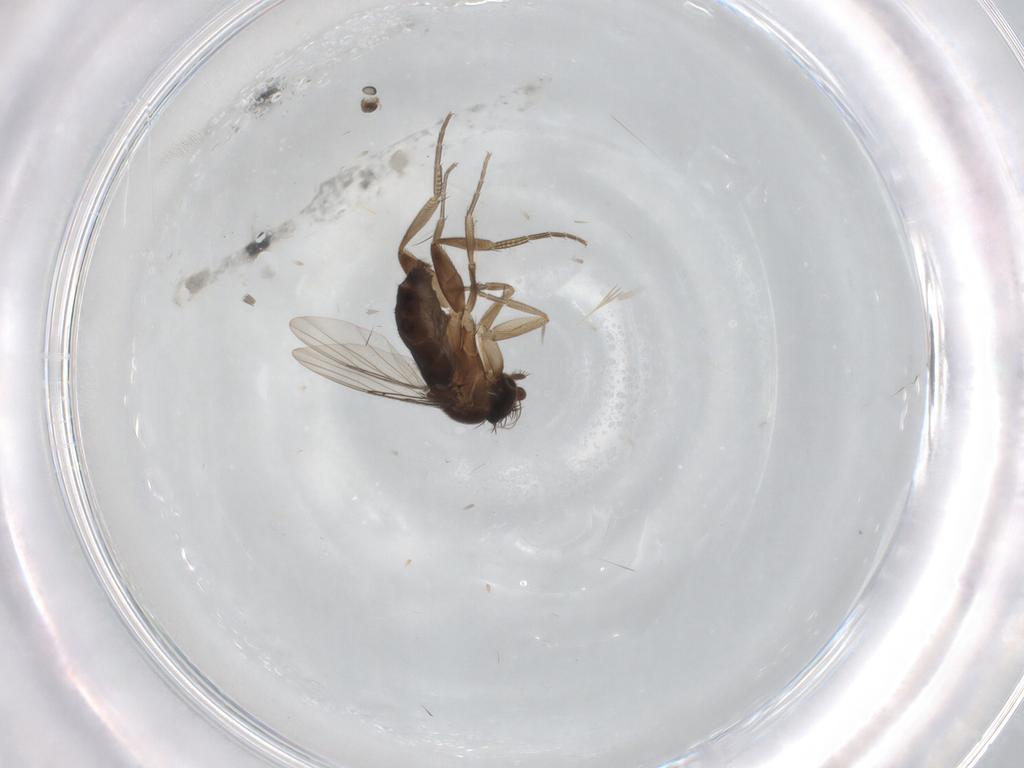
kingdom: Animalia
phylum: Arthropoda
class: Insecta
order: Diptera
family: Phoridae
